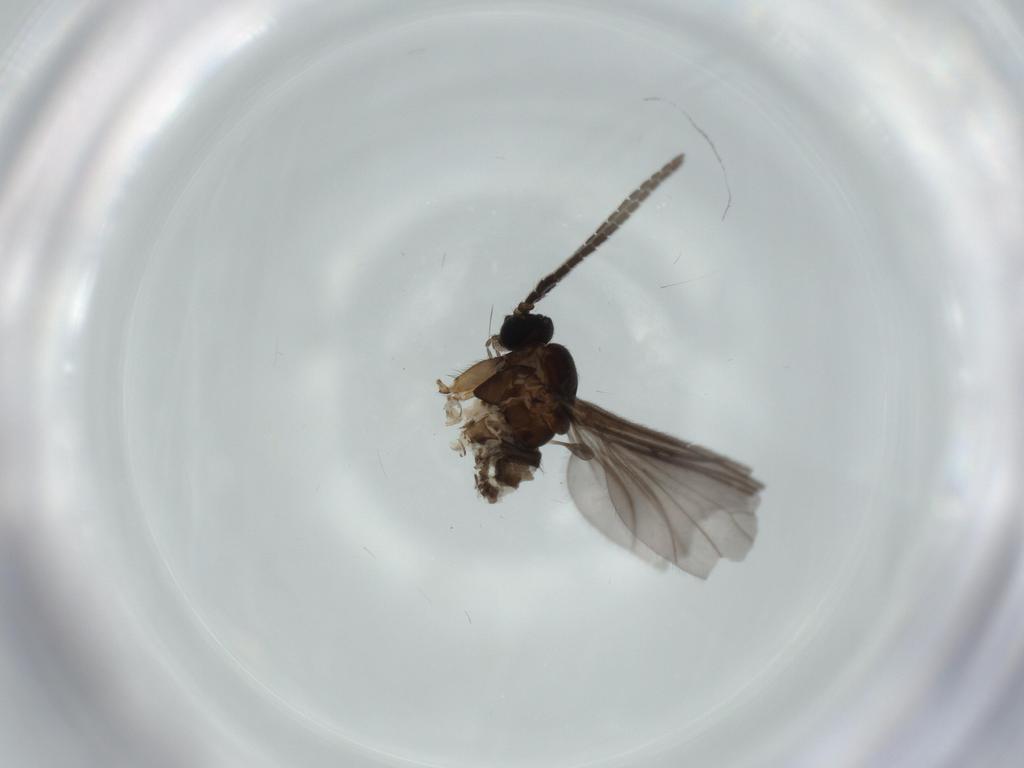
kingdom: Animalia
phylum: Arthropoda
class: Insecta
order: Diptera
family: Sciaridae
